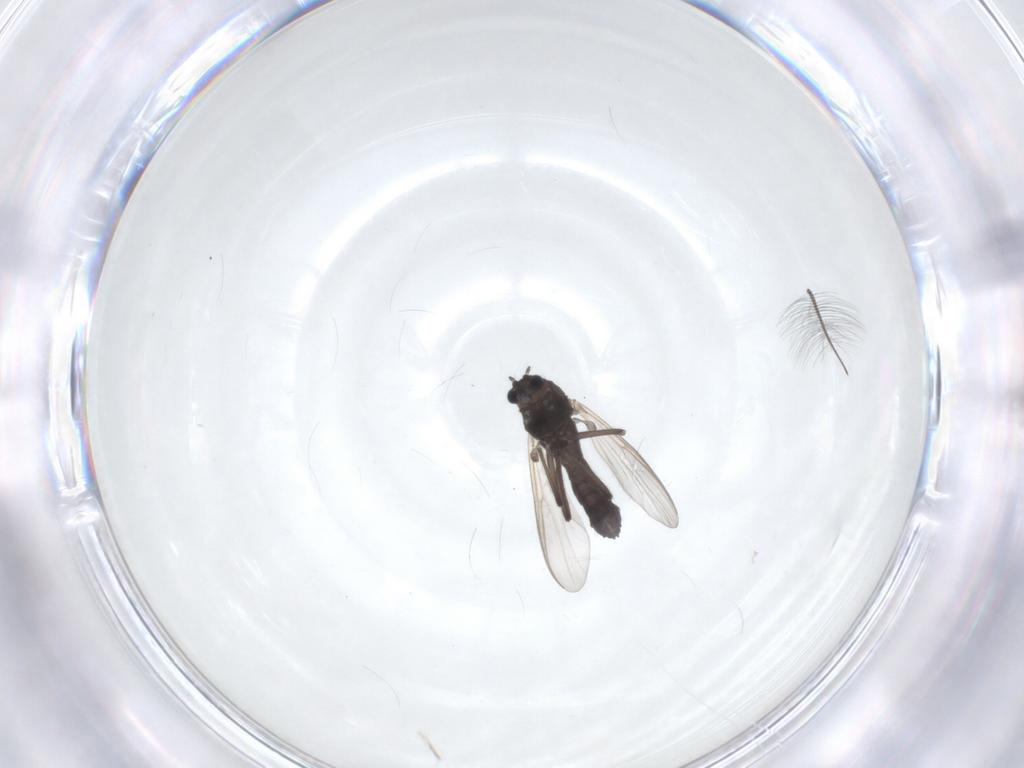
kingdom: Animalia
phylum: Arthropoda
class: Insecta
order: Diptera
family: Chironomidae
